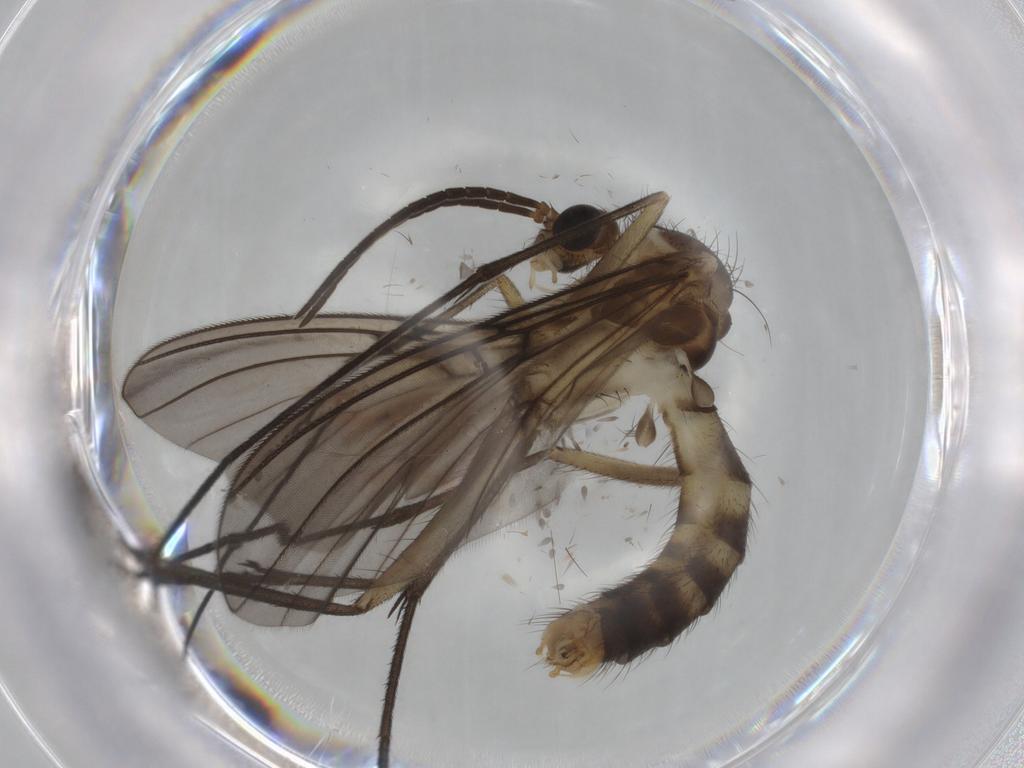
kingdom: Animalia
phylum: Arthropoda
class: Insecta
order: Diptera
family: Mycetophilidae
